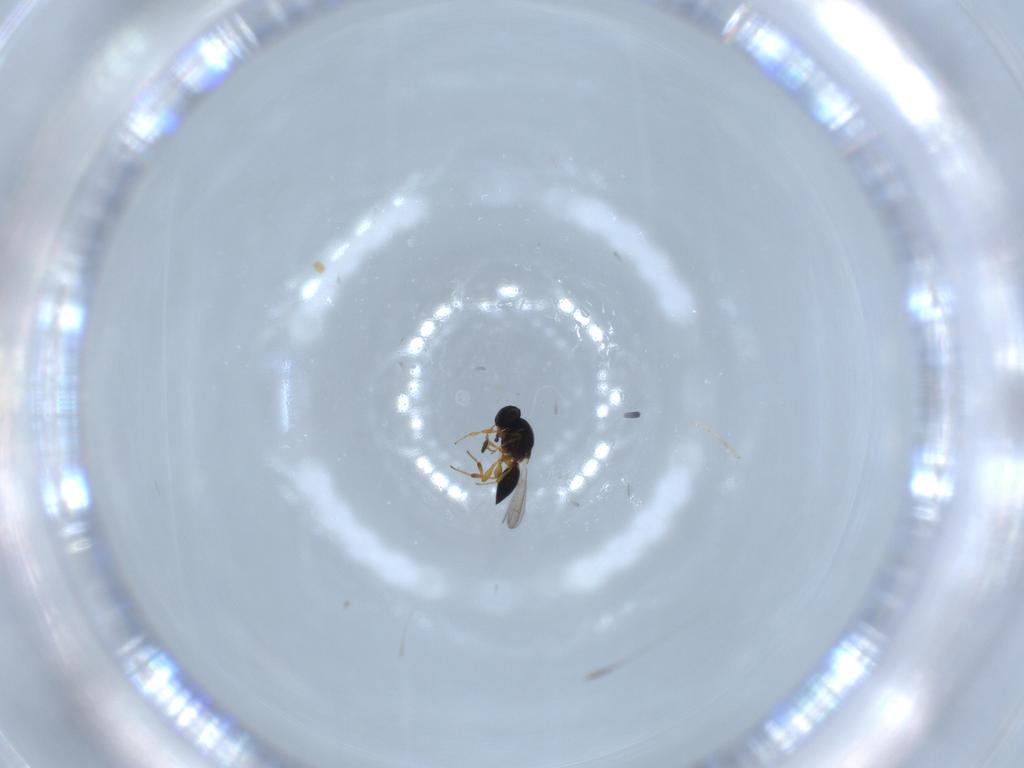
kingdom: Animalia
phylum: Arthropoda
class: Insecta
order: Hymenoptera
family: Platygastridae
